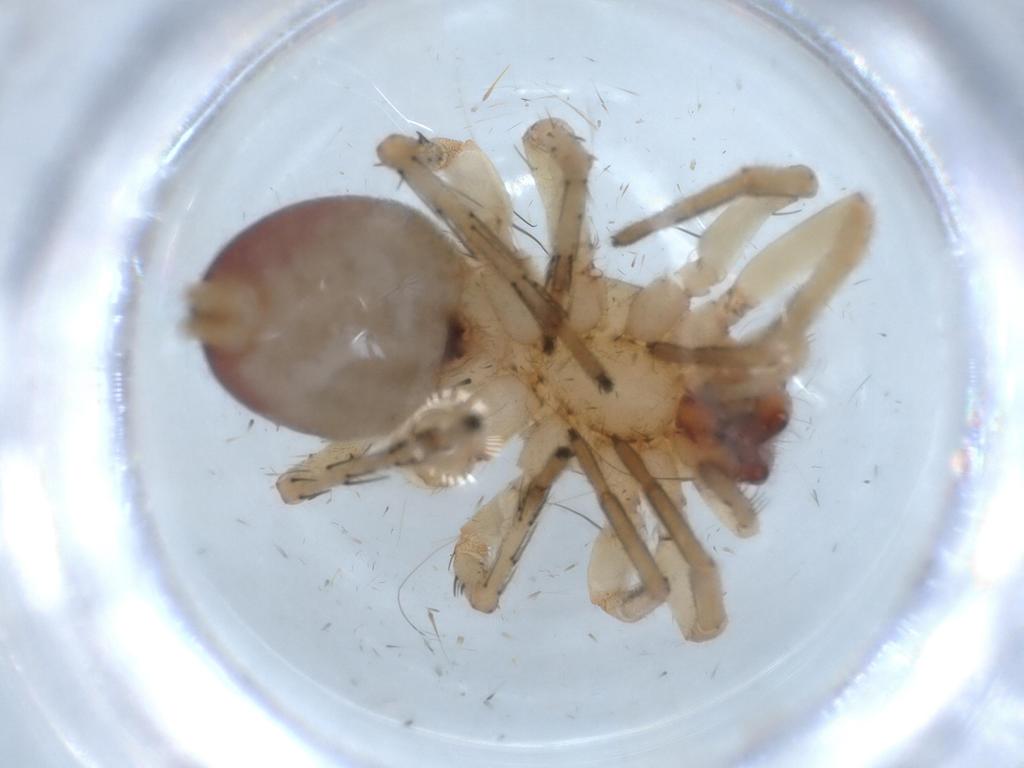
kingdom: Animalia
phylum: Arthropoda
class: Arachnida
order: Araneae
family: Clubionidae
